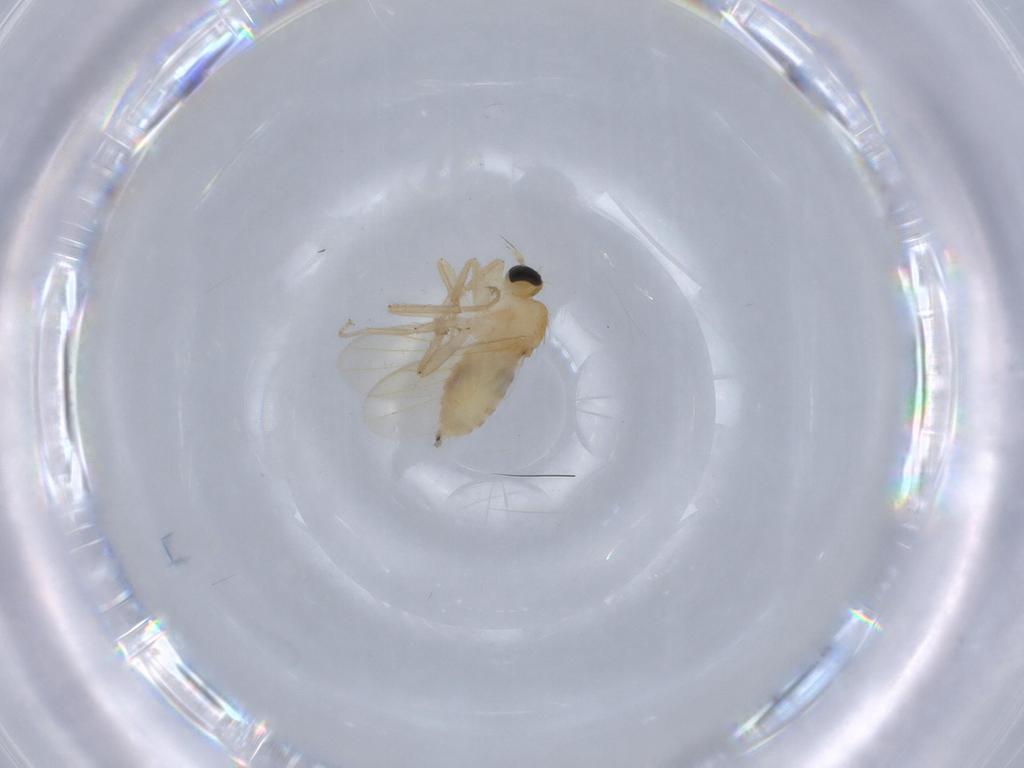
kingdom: Animalia
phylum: Arthropoda
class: Insecta
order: Diptera
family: Hybotidae
